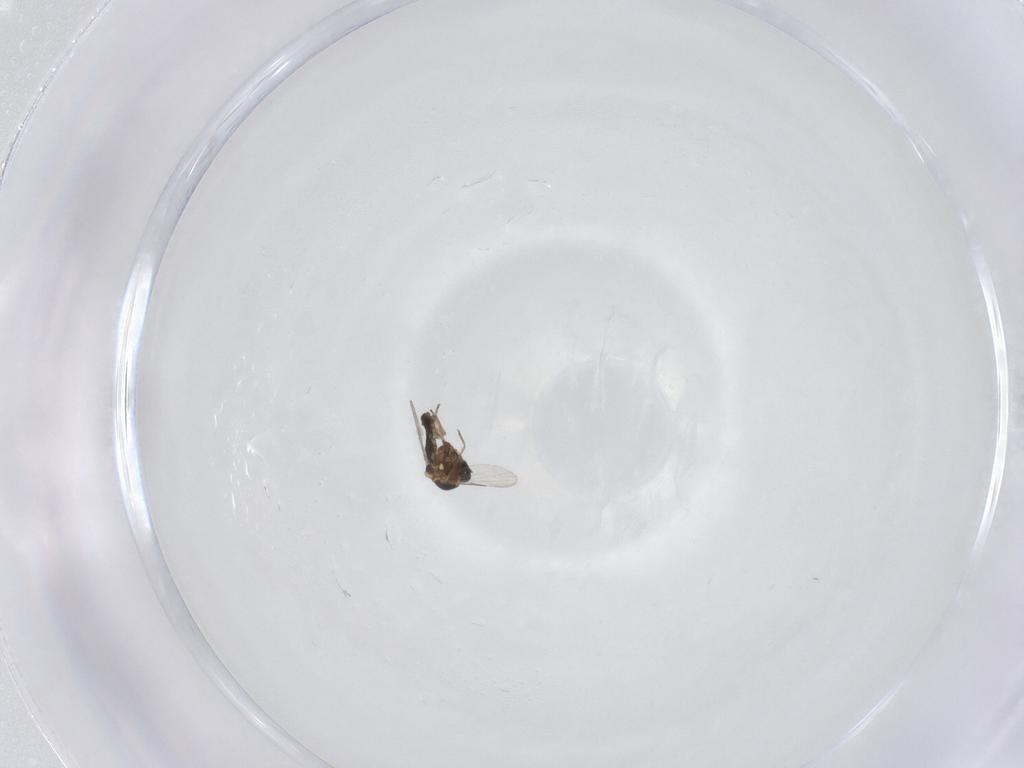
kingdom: Animalia
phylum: Arthropoda
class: Insecta
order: Diptera
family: Ceratopogonidae
